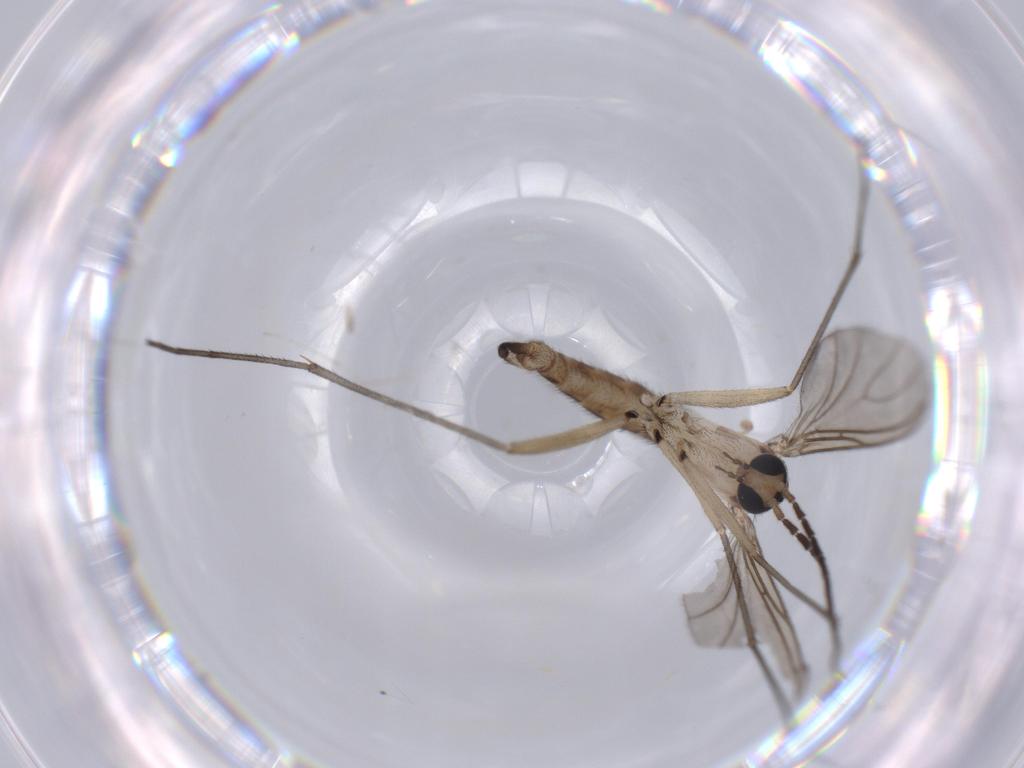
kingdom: Animalia
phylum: Arthropoda
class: Insecta
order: Diptera
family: Sciaridae
